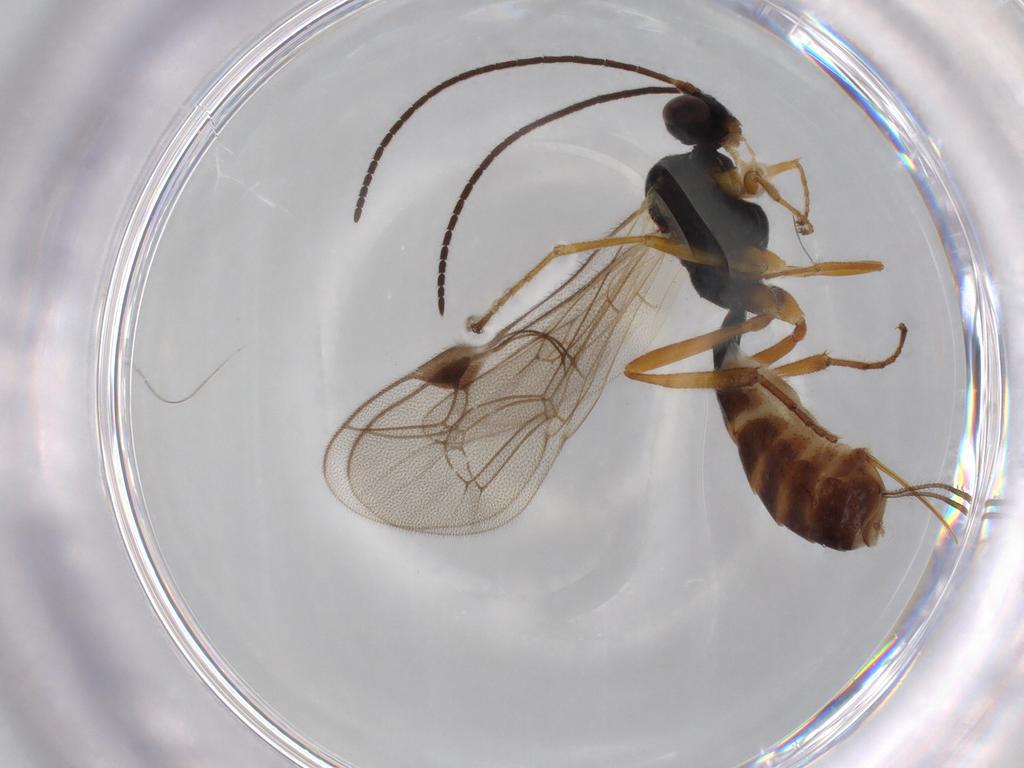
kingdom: Animalia
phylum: Arthropoda
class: Insecta
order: Hymenoptera
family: Ichneumonidae
